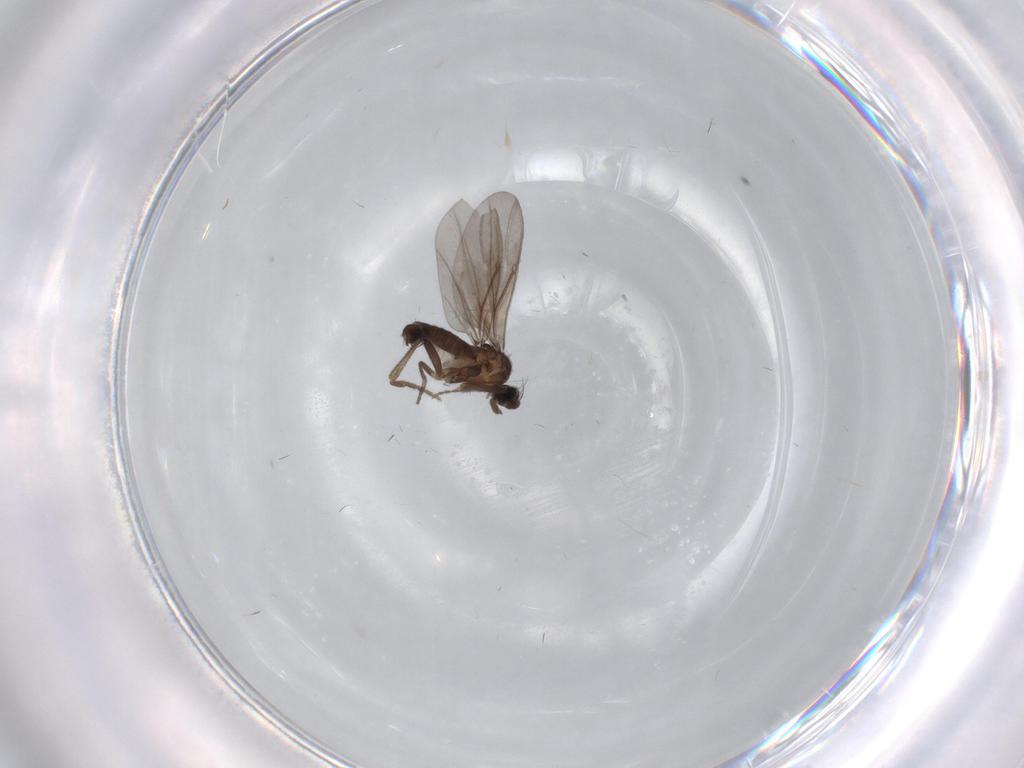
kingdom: Animalia
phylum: Arthropoda
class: Insecta
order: Diptera
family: Phoridae
